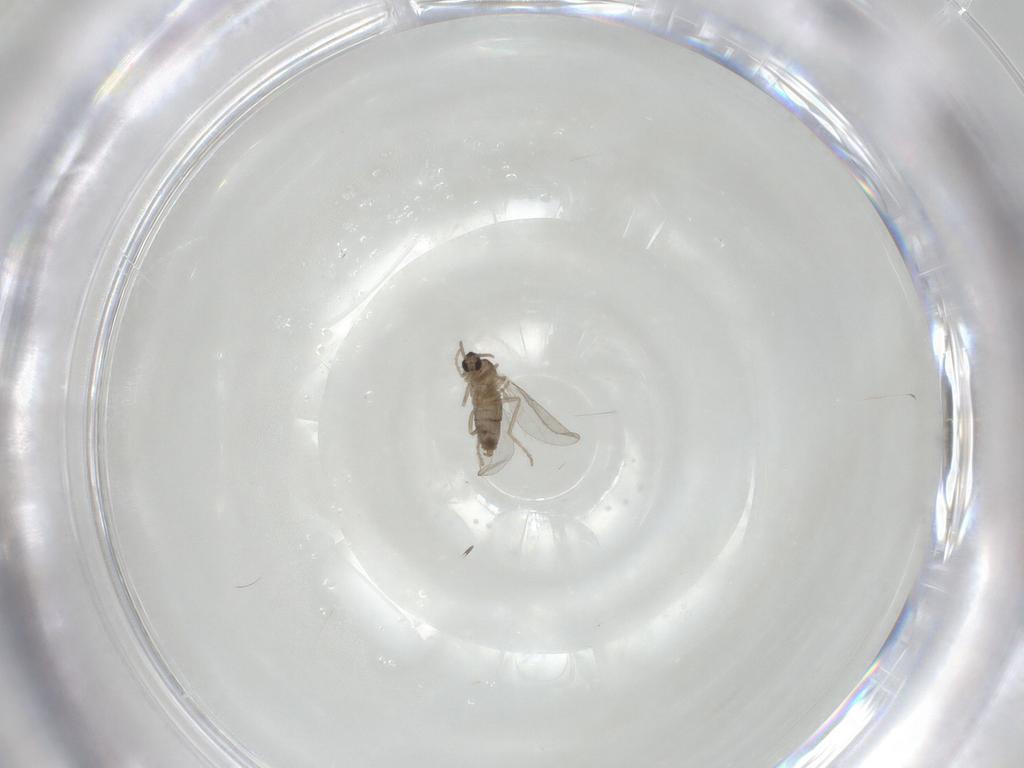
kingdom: Animalia
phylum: Arthropoda
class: Insecta
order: Diptera
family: Cecidomyiidae
